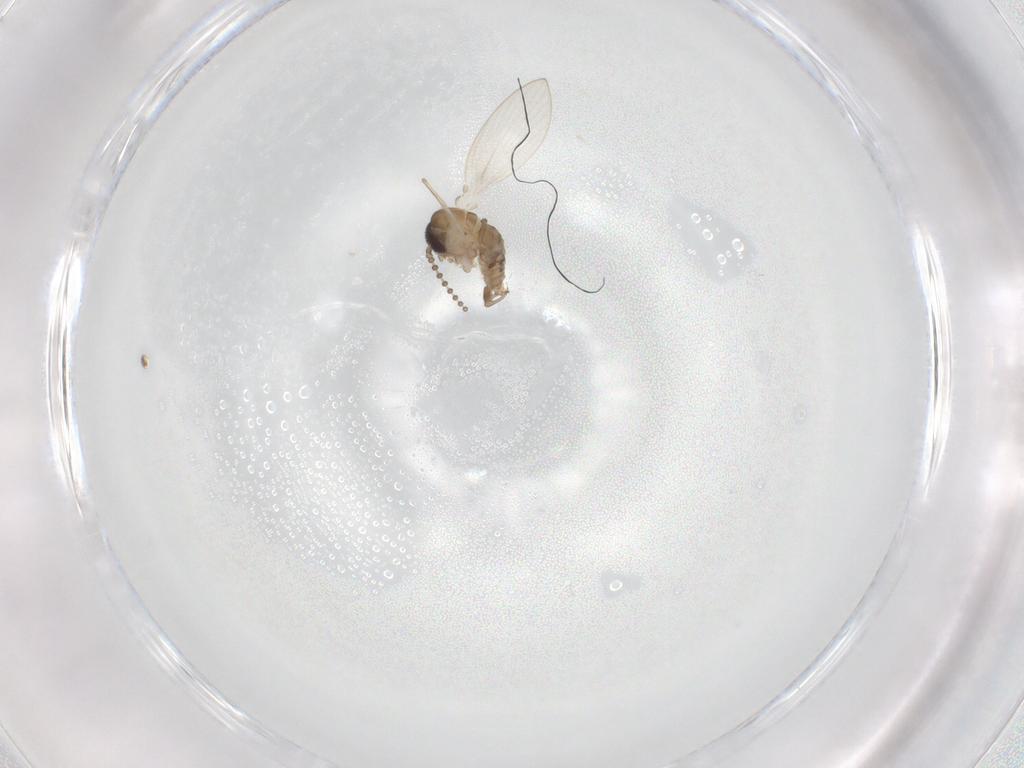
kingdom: Animalia
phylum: Arthropoda
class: Insecta
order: Diptera
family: Psychodidae
